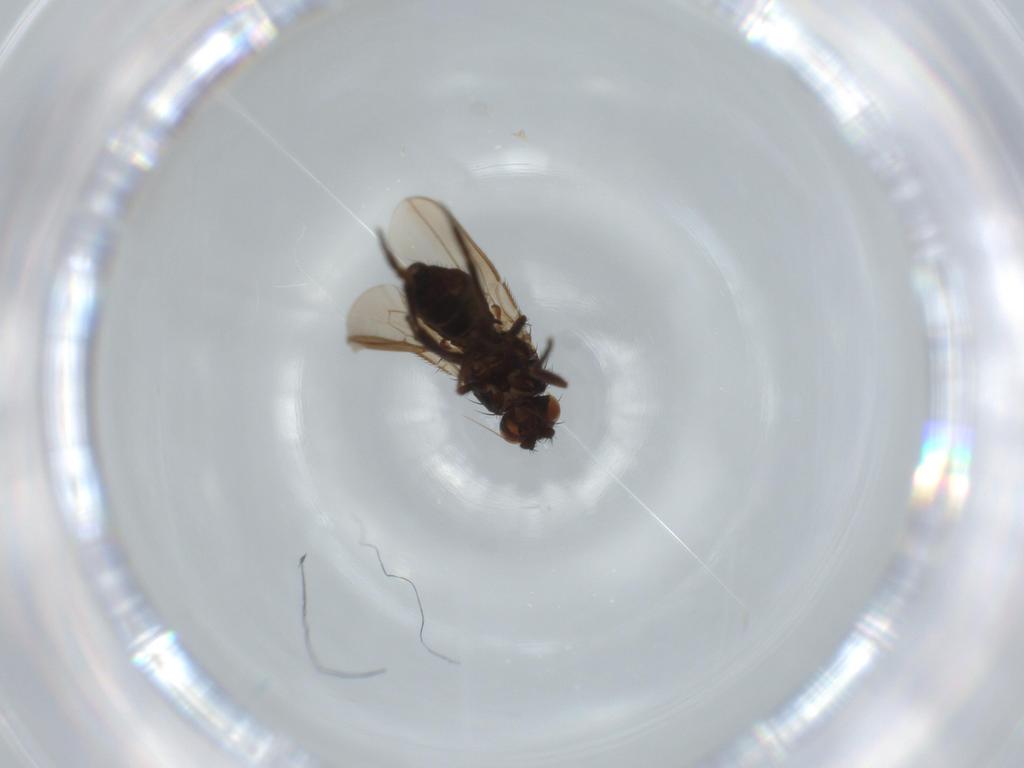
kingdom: Animalia
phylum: Arthropoda
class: Insecta
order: Diptera
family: Sphaeroceridae
